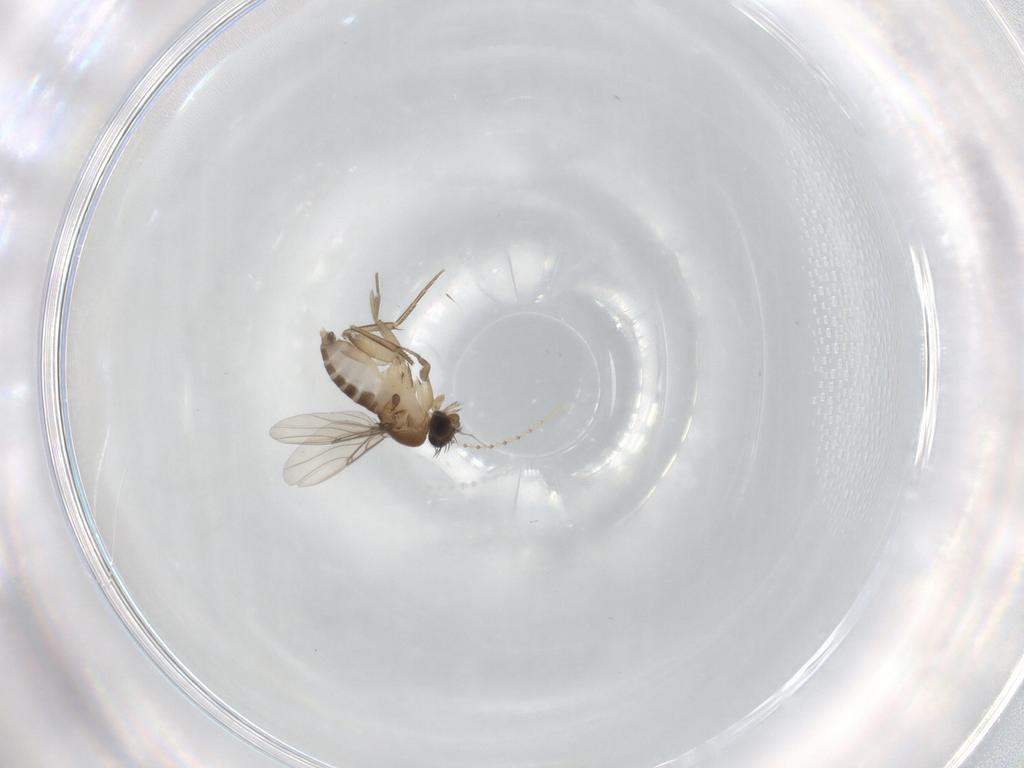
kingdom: Animalia
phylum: Arthropoda
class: Insecta
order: Diptera
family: Phoridae
